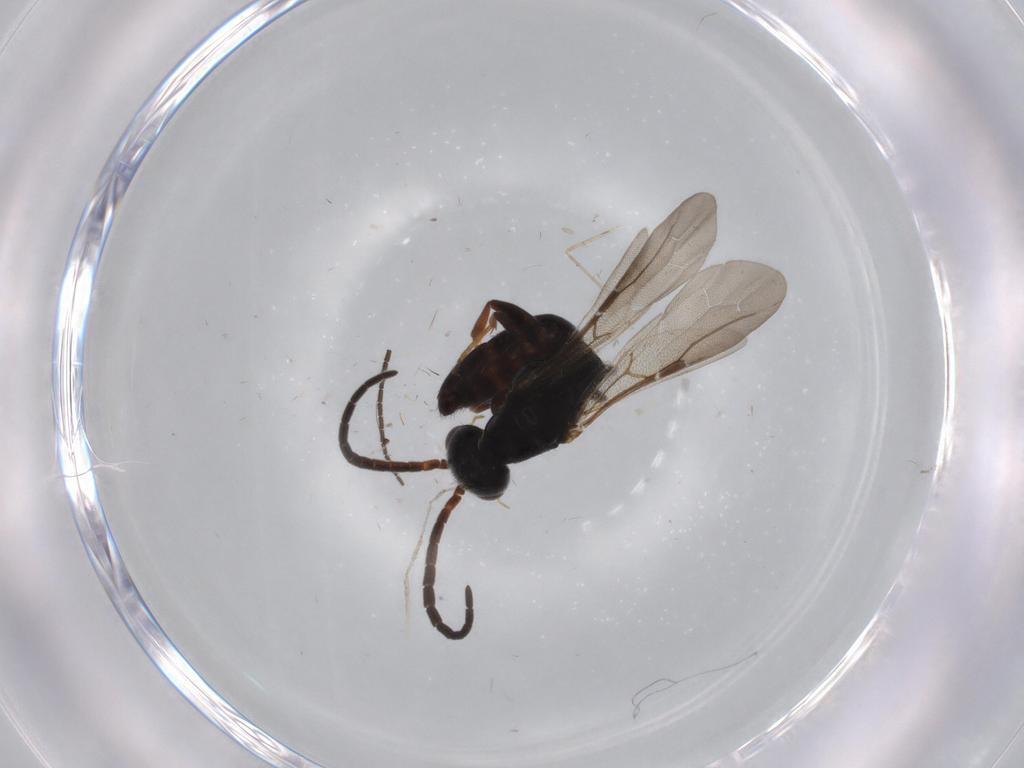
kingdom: Animalia
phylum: Arthropoda
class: Insecta
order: Hymenoptera
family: Bethylidae
